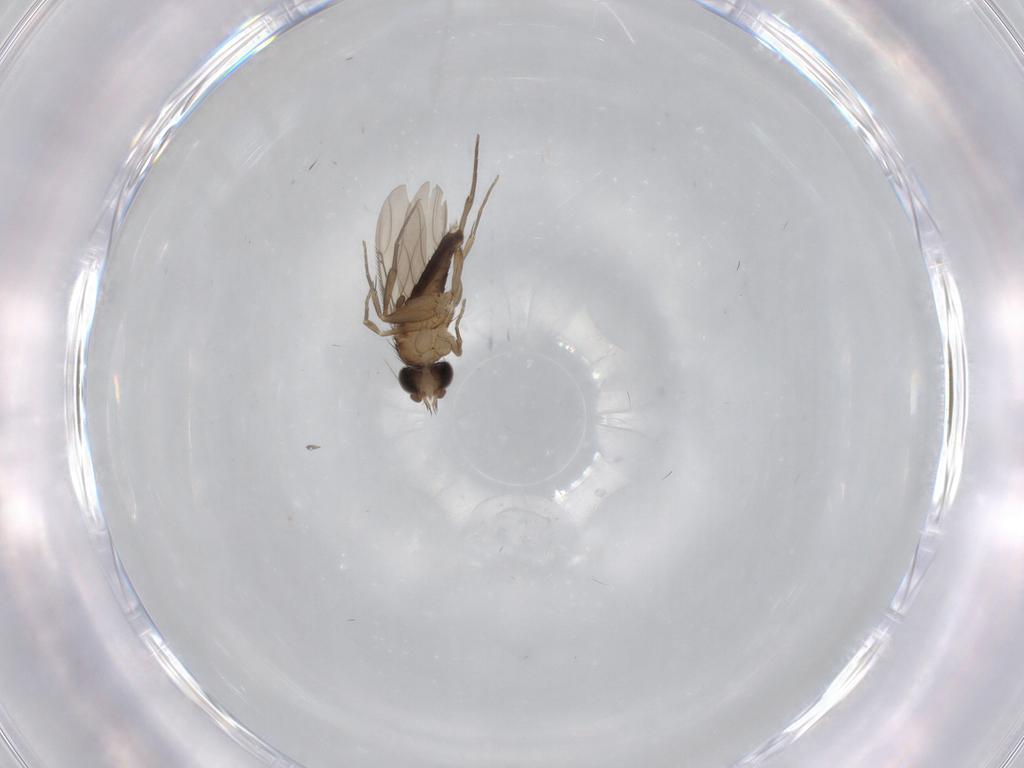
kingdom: Animalia
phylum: Arthropoda
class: Insecta
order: Diptera
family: Phoridae
